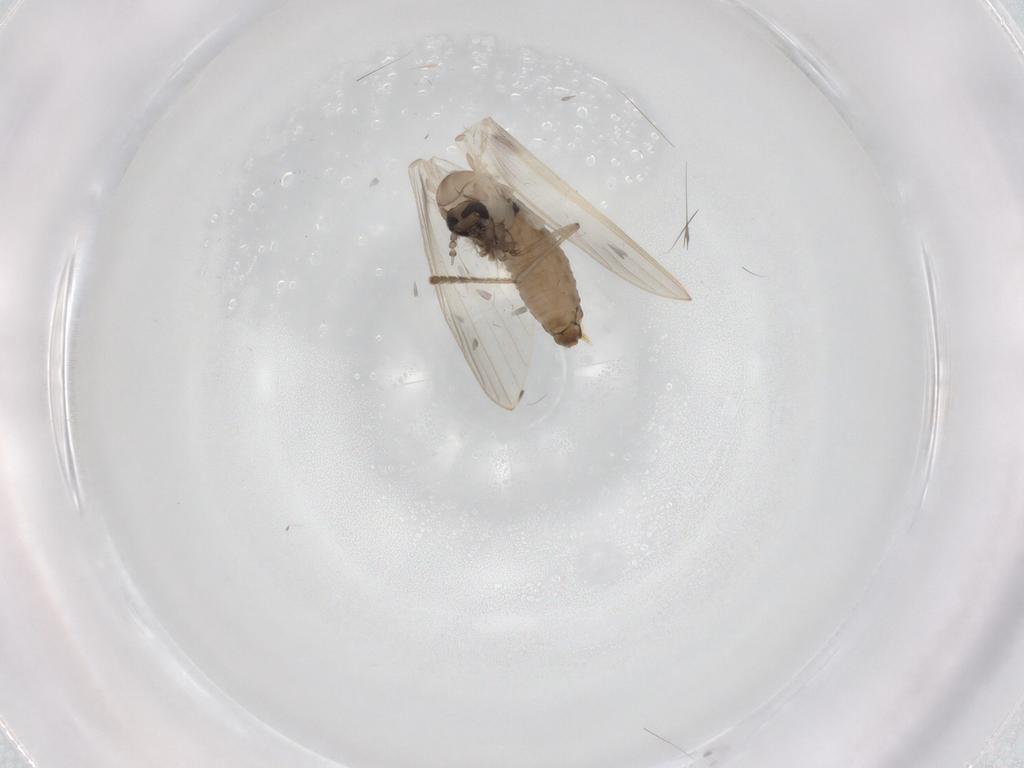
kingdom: Animalia
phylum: Arthropoda
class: Insecta
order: Diptera
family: Psychodidae
